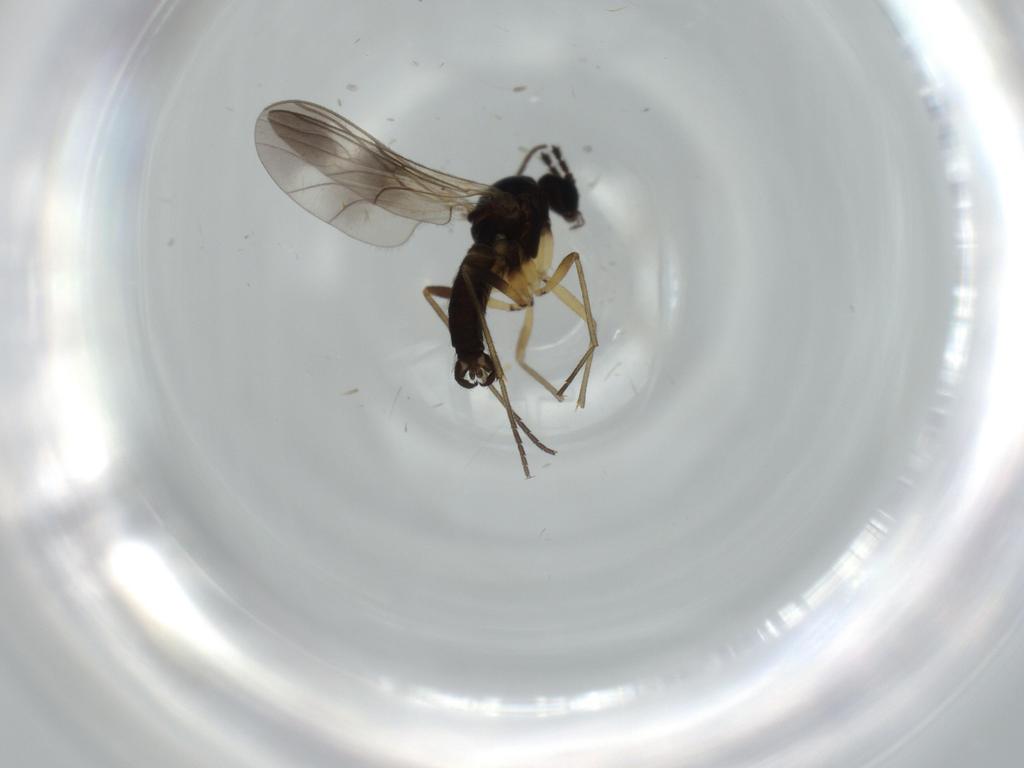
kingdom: Animalia
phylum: Arthropoda
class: Insecta
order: Diptera
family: Sciaridae
